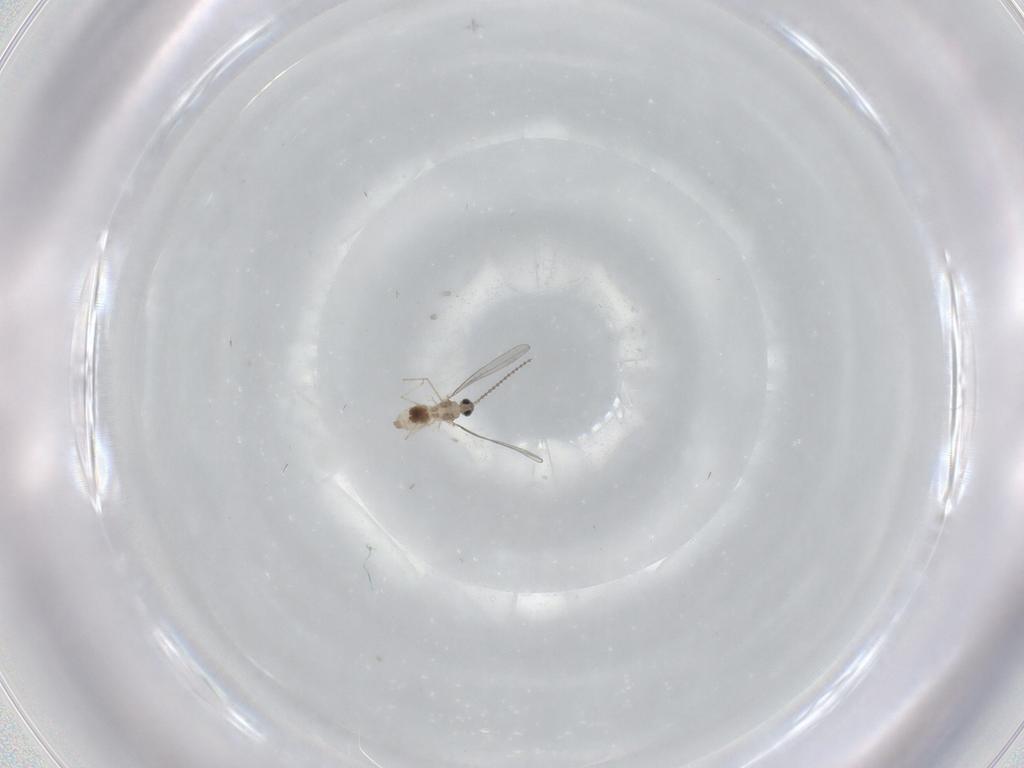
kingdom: Animalia
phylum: Arthropoda
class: Insecta
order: Diptera
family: Cecidomyiidae
